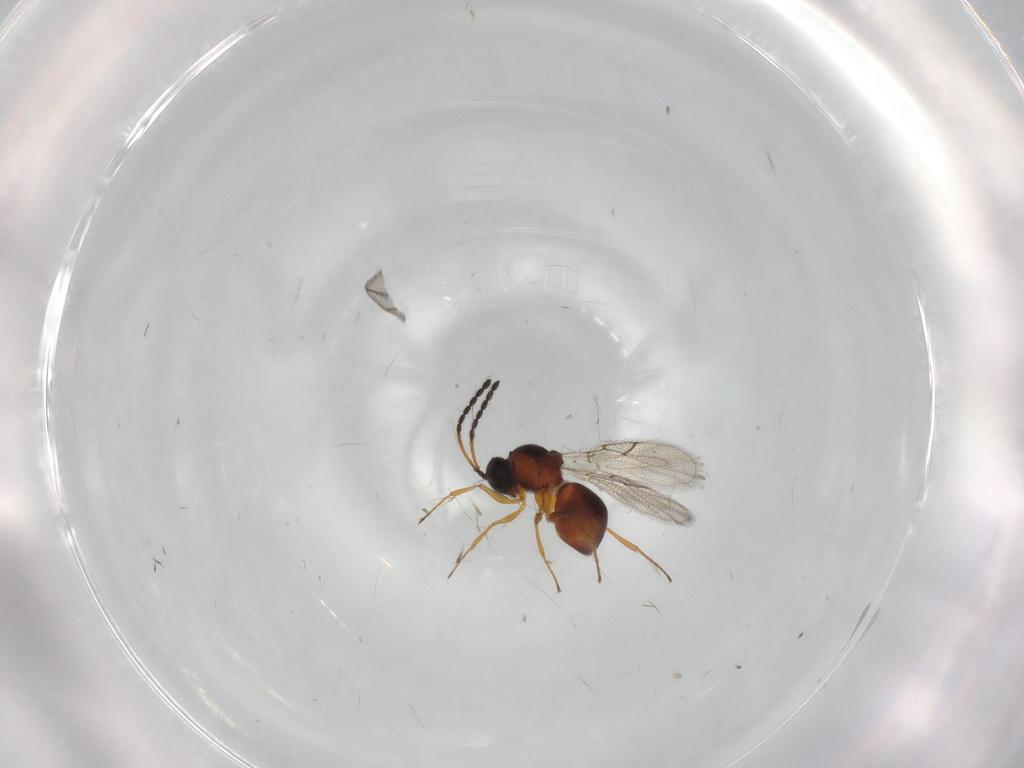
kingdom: Animalia
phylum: Arthropoda
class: Insecta
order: Hymenoptera
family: Figitidae
